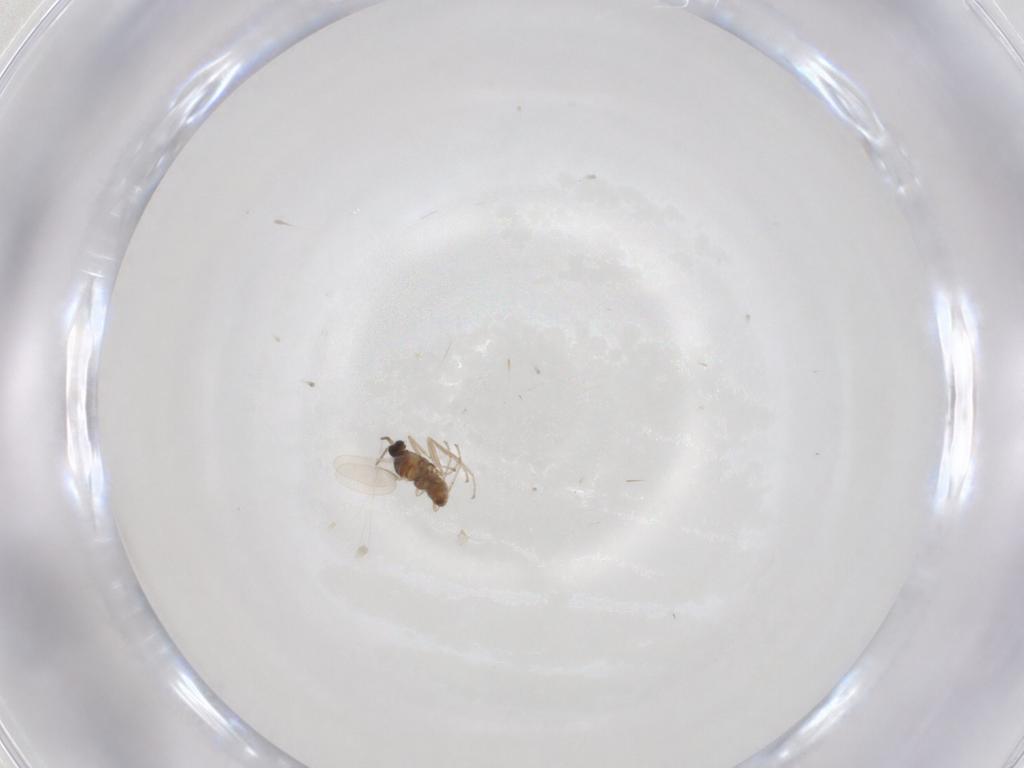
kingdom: Animalia
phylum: Arthropoda
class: Insecta
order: Diptera
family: Cecidomyiidae
